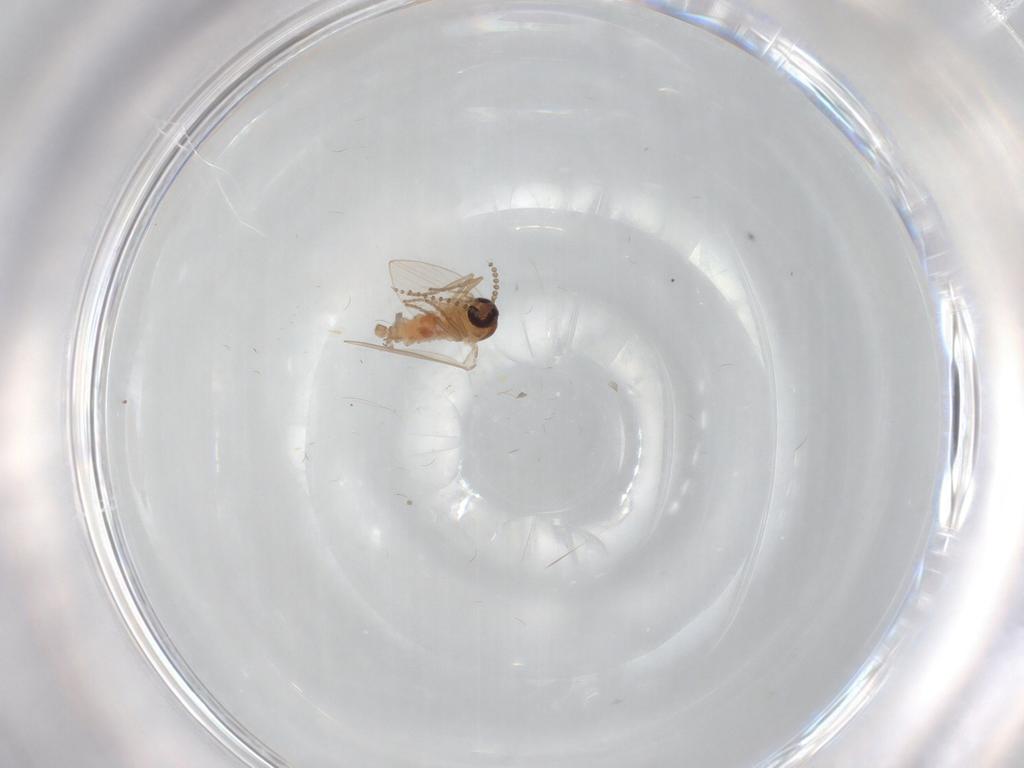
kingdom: Animalia
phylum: Arthropoda
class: Insecta
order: Diptera
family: Psychodidae
